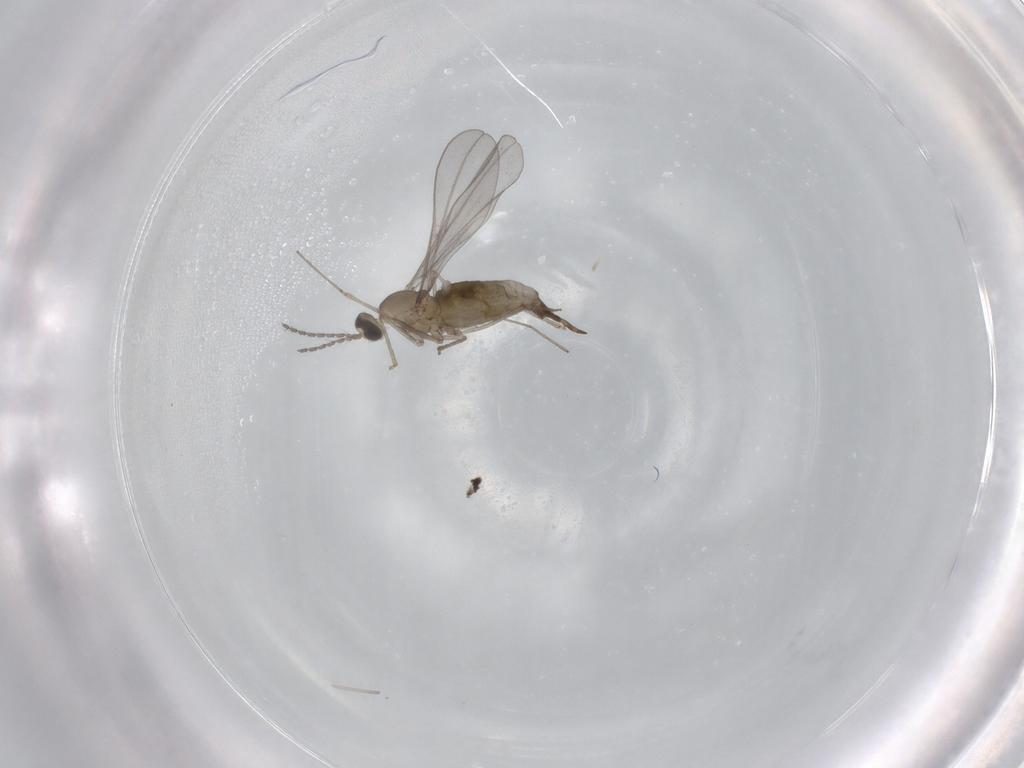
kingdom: Animalia
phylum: Arthropoda
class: Insecta
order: Diptera
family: Cecidomyiidae
